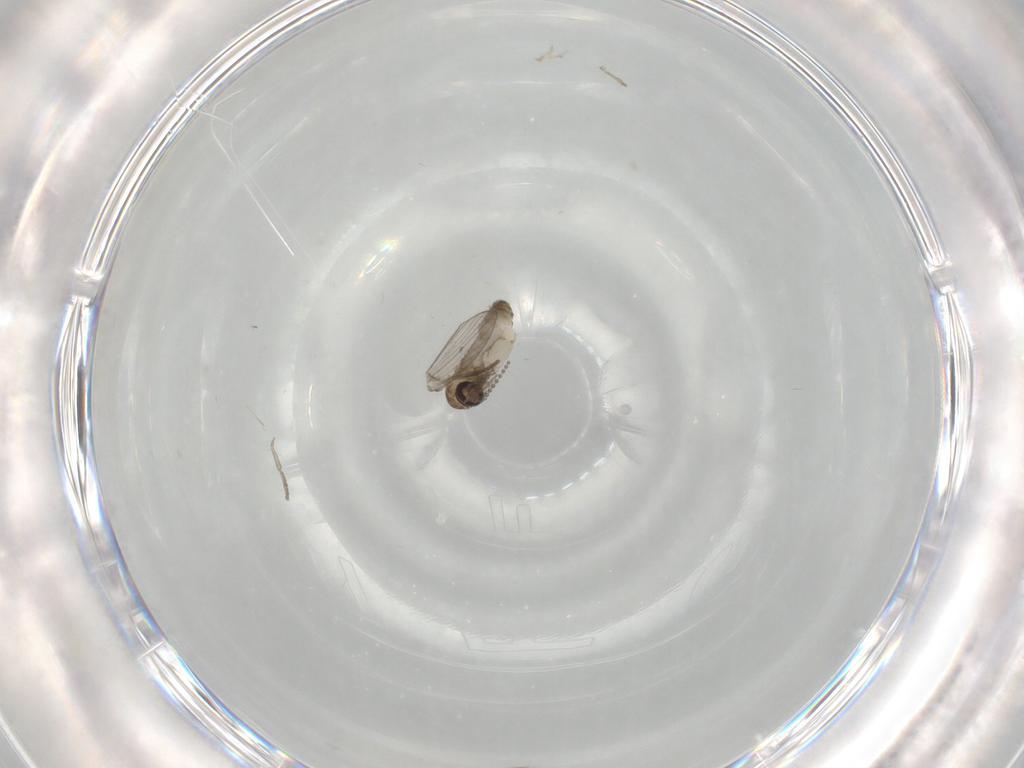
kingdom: Animalia
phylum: Arthropoda
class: Insecta
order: Diptera
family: Psychodidae
